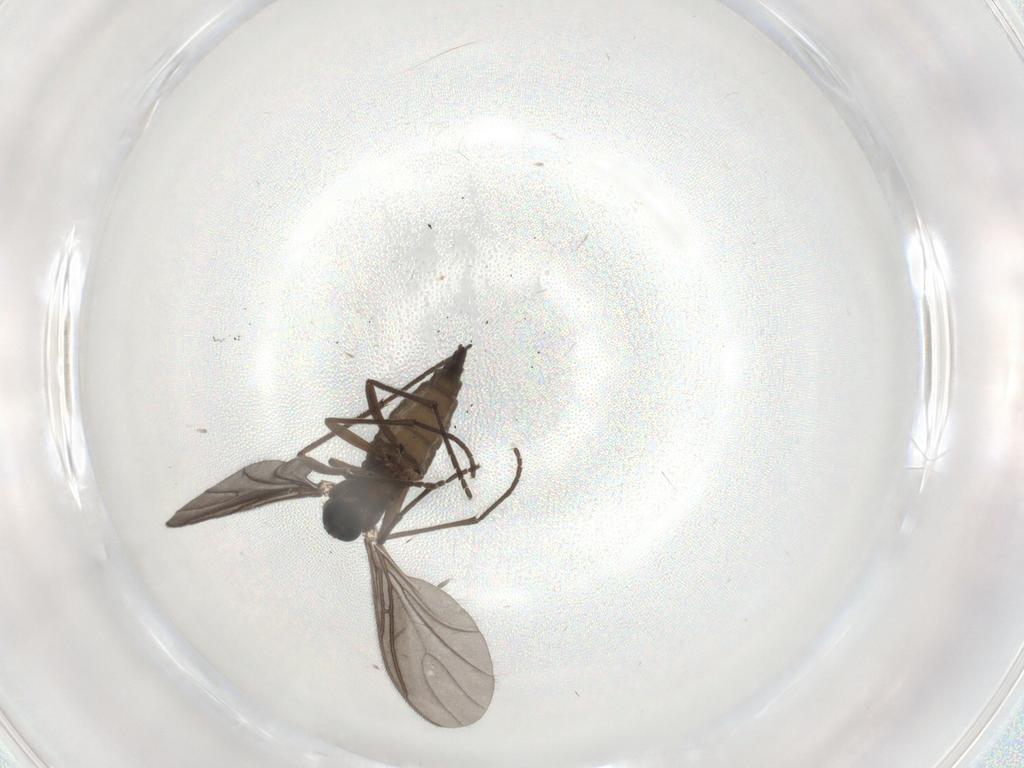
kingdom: Animalia
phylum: Arthropoda
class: Insecta
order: Diptera
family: Sciaridae
